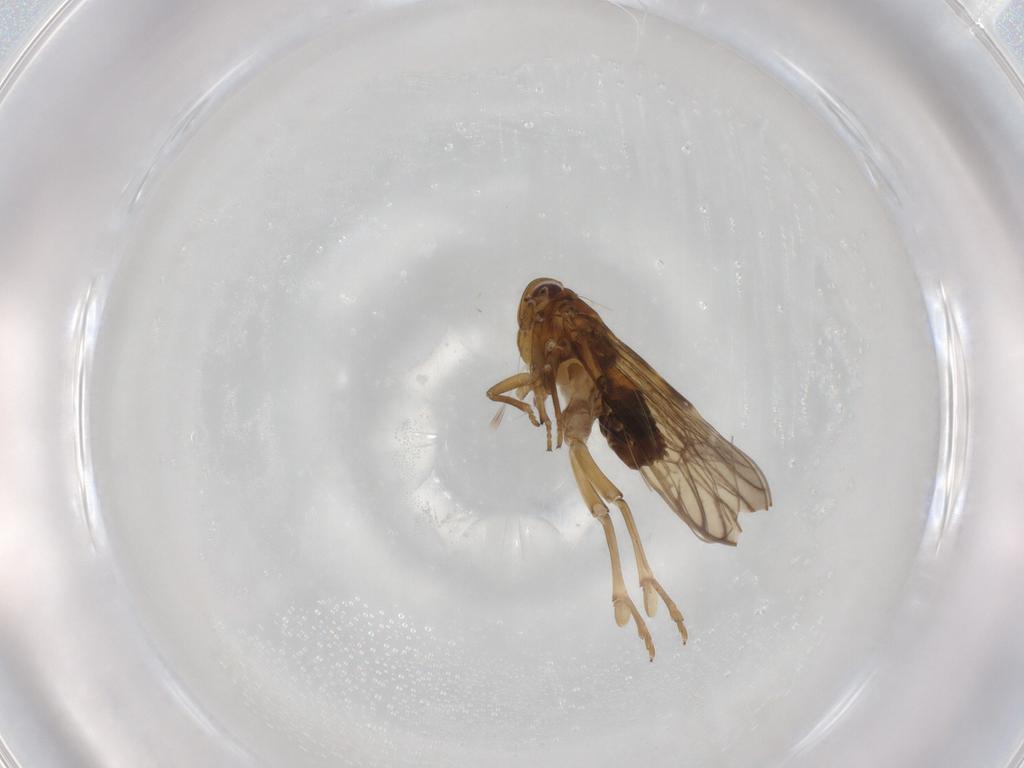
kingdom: Animalia
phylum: Arthropoda
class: Insecta
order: Hemiptera
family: Delphacidae
